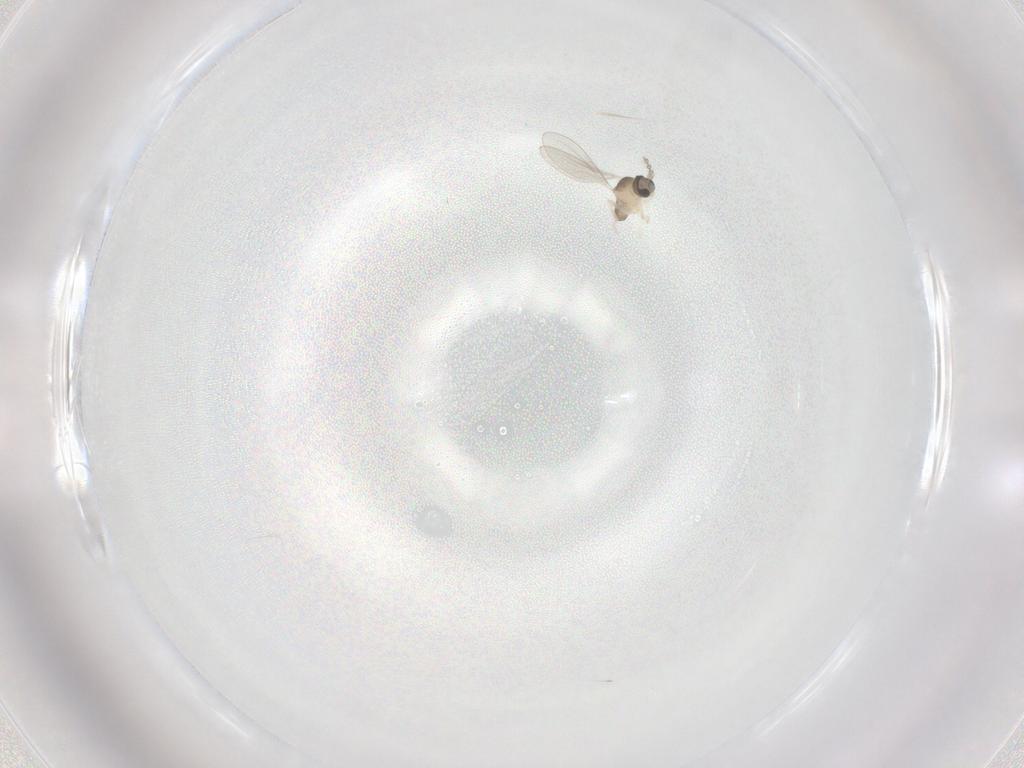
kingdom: Animalia
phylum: Arthropoda
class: Insecta
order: Diptera
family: Cecidomyiidae
